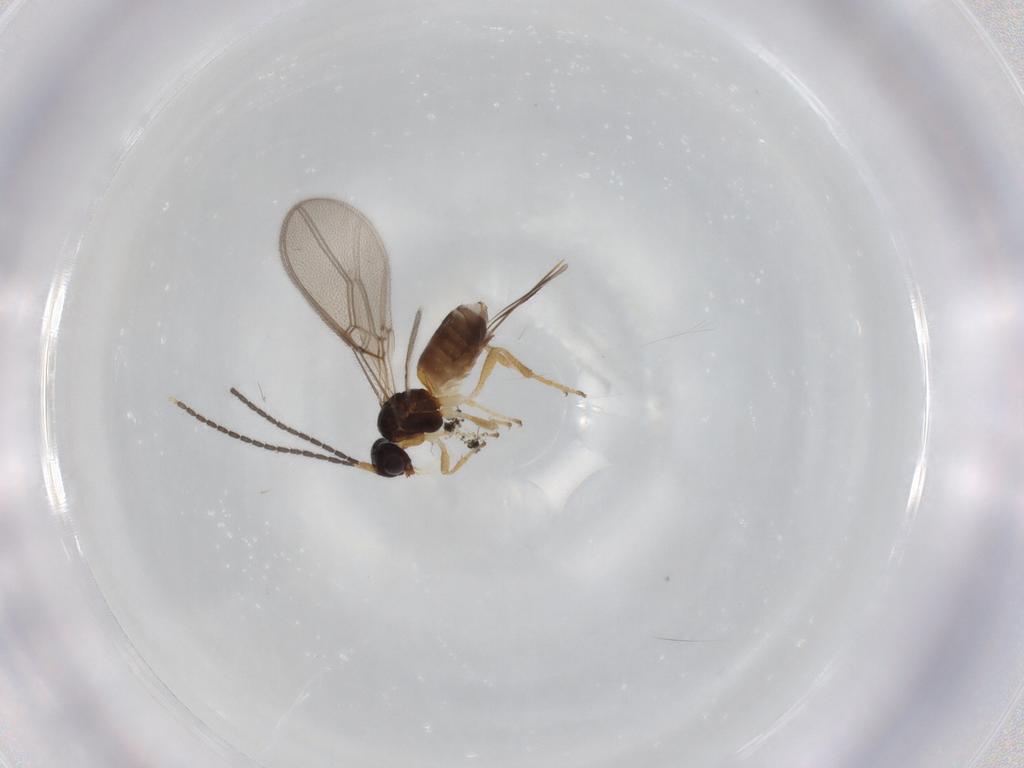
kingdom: Animalia
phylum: Arthropoda
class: Insecta
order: Hymenoptera
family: Braconidae
